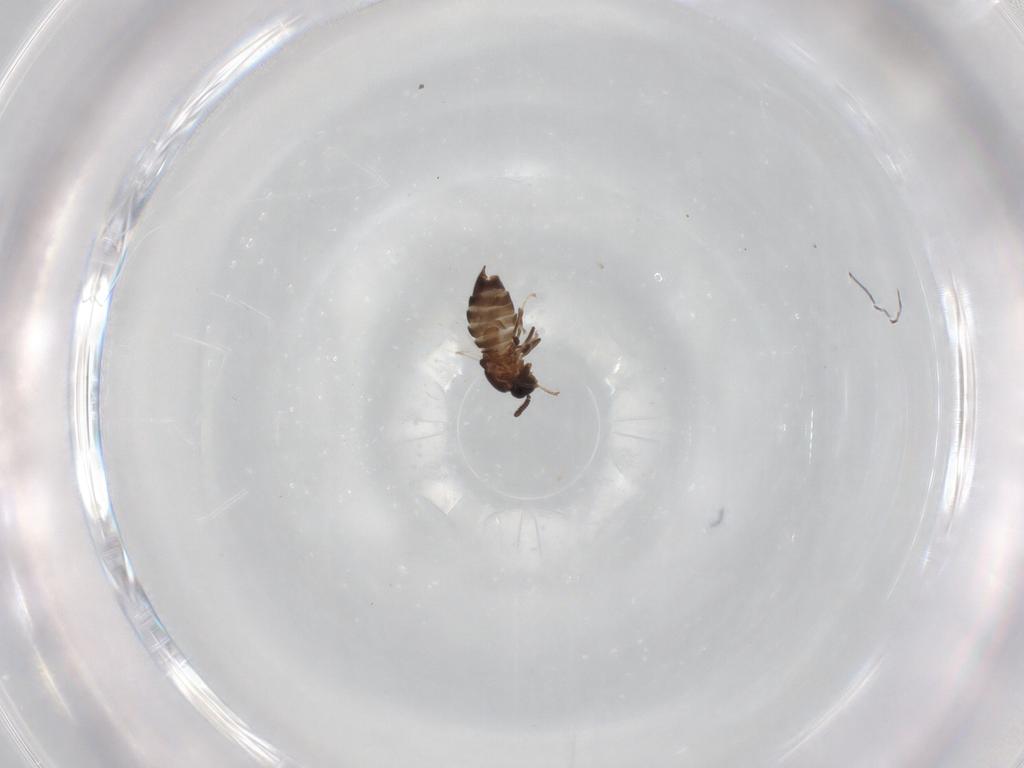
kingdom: Animalia
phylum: Arthropoda
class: Insecta
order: Diptera
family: Scatopsidae
